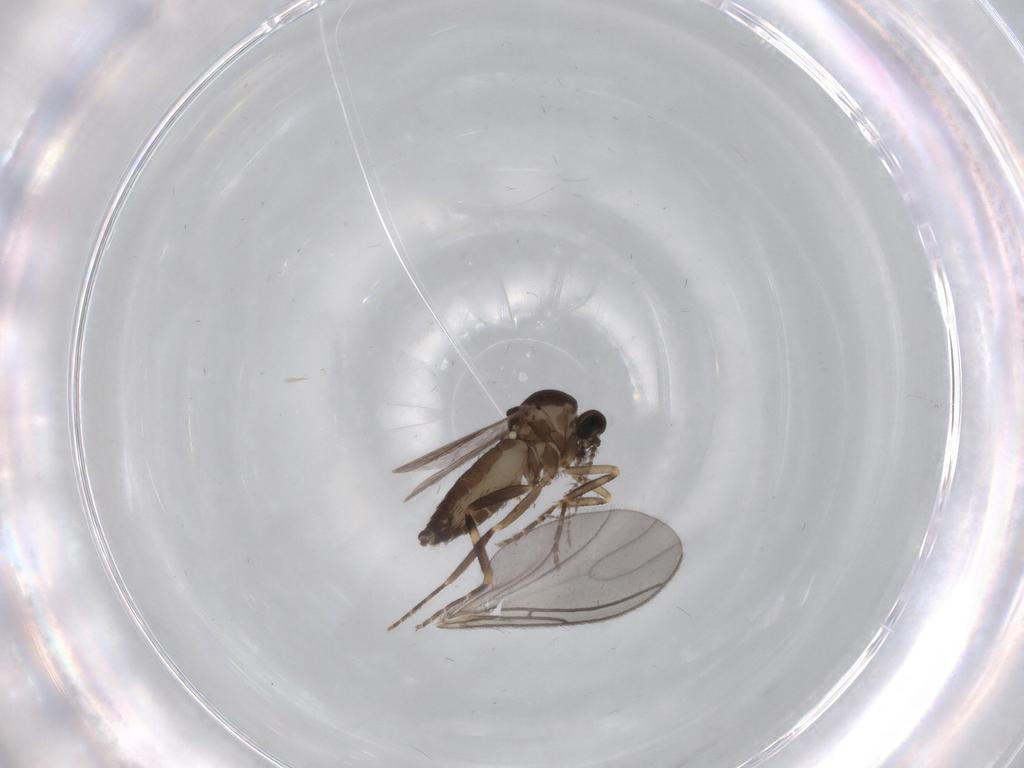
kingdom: Animalia
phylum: Arthropoda
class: Insecta
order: Diptera
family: Ceratopogonidae
